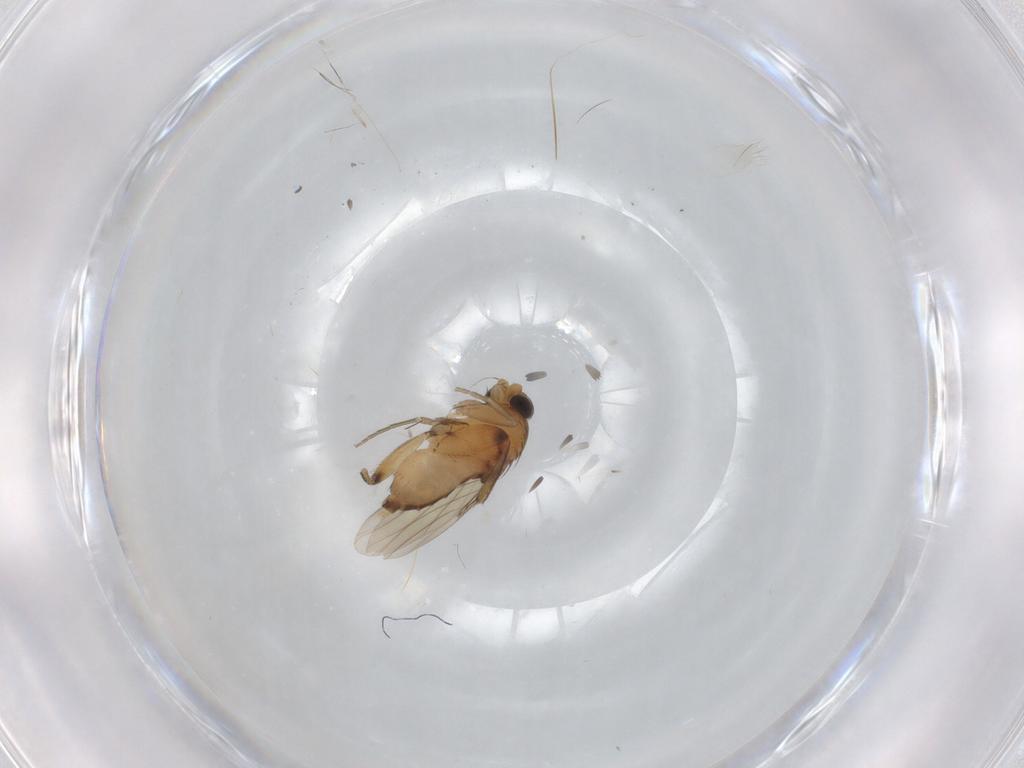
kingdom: Animalia
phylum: Arthropoda
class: Insecta
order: Diptera
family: Phoridae
